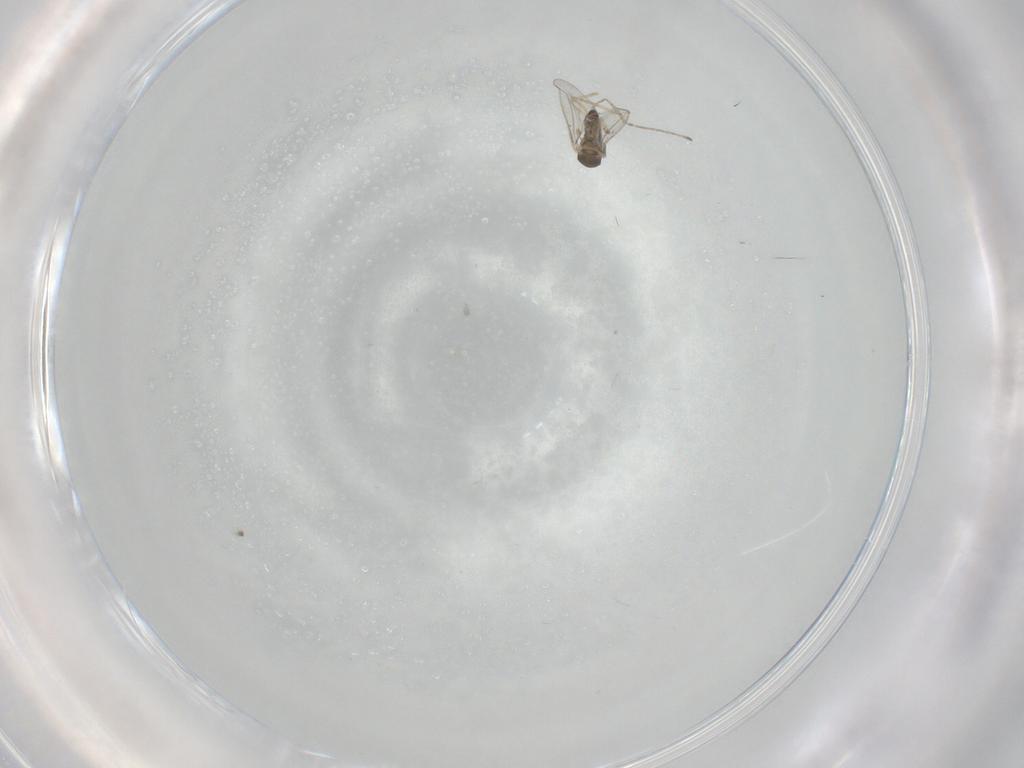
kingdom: Animalia
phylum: Arthropoda
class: Insecta
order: Diptera
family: Cecidomyiidae
